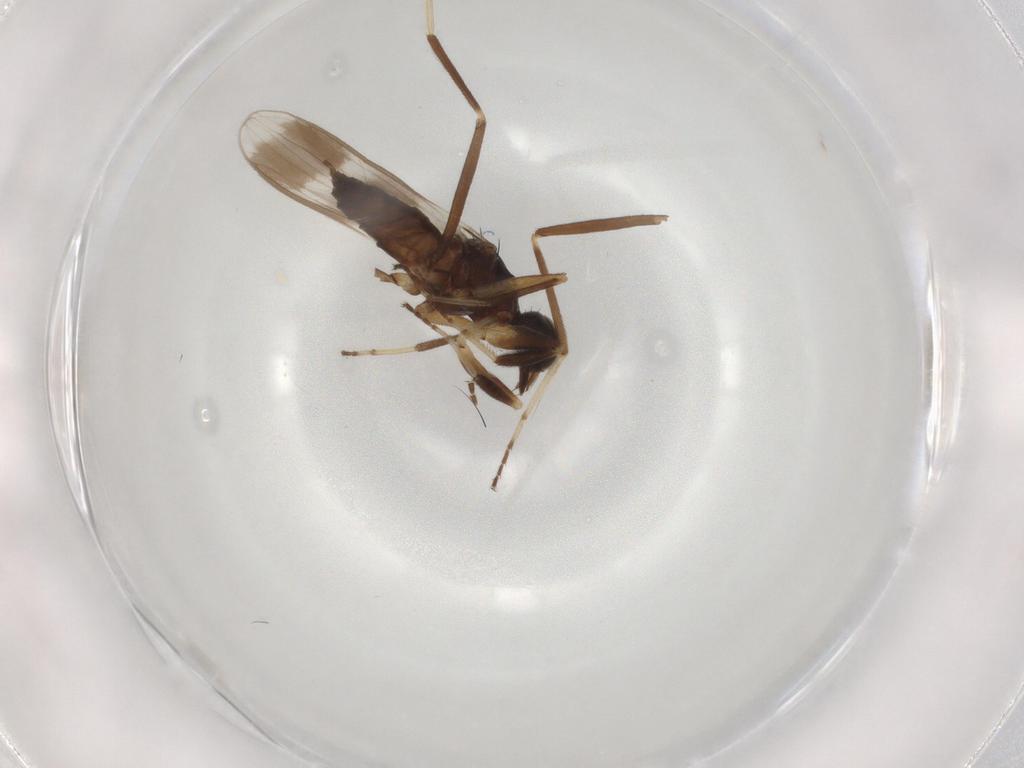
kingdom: Animalia
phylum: Arthropoda
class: Insecta
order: Diptera
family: Hybotidae
